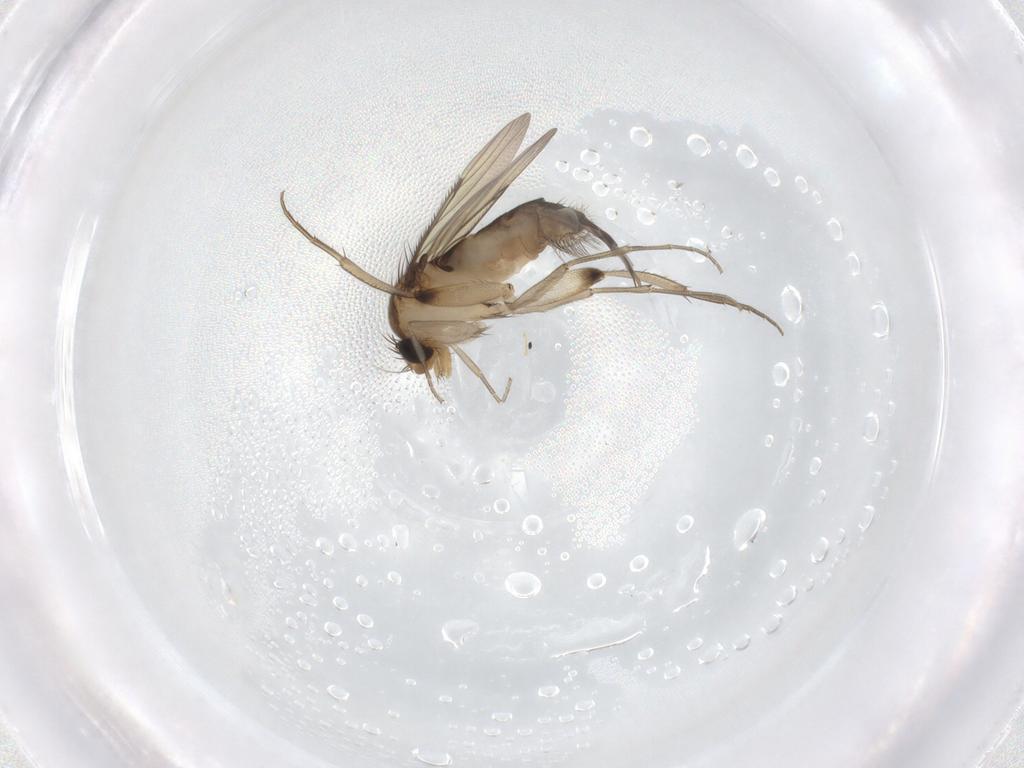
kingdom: Animalia
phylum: Arthropoda
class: Insecta
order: Diptera
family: Phoridae
